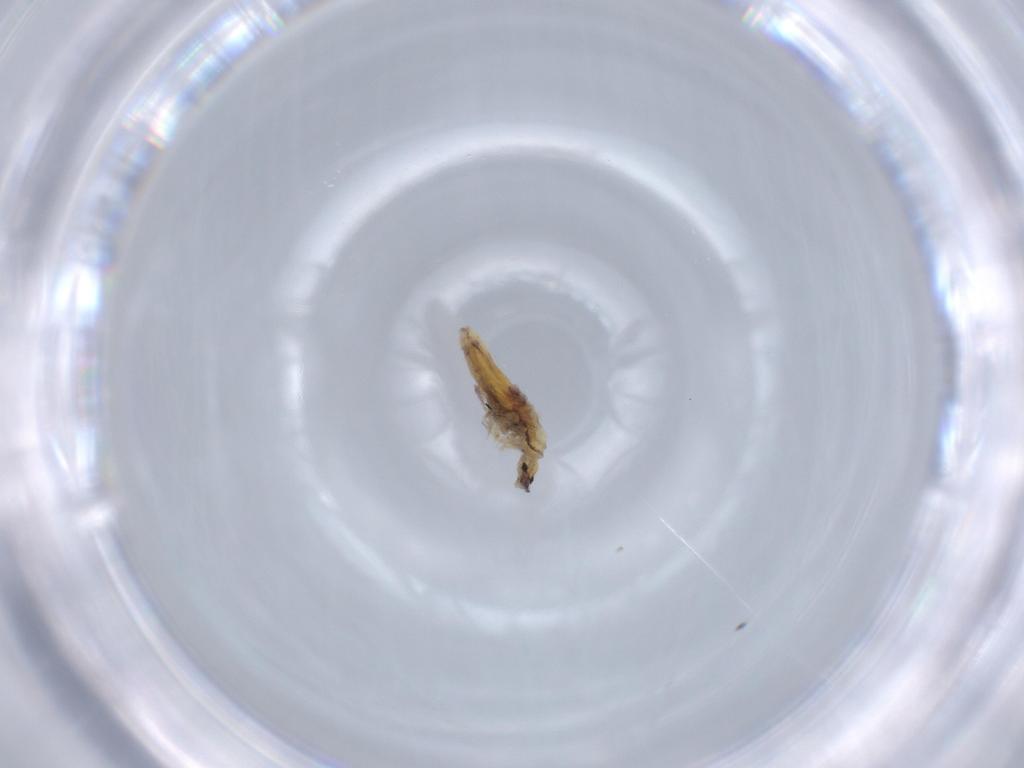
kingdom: Animalia
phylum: Arthropoda
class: Collembola
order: Poduromorpha
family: Hypogastruridae
